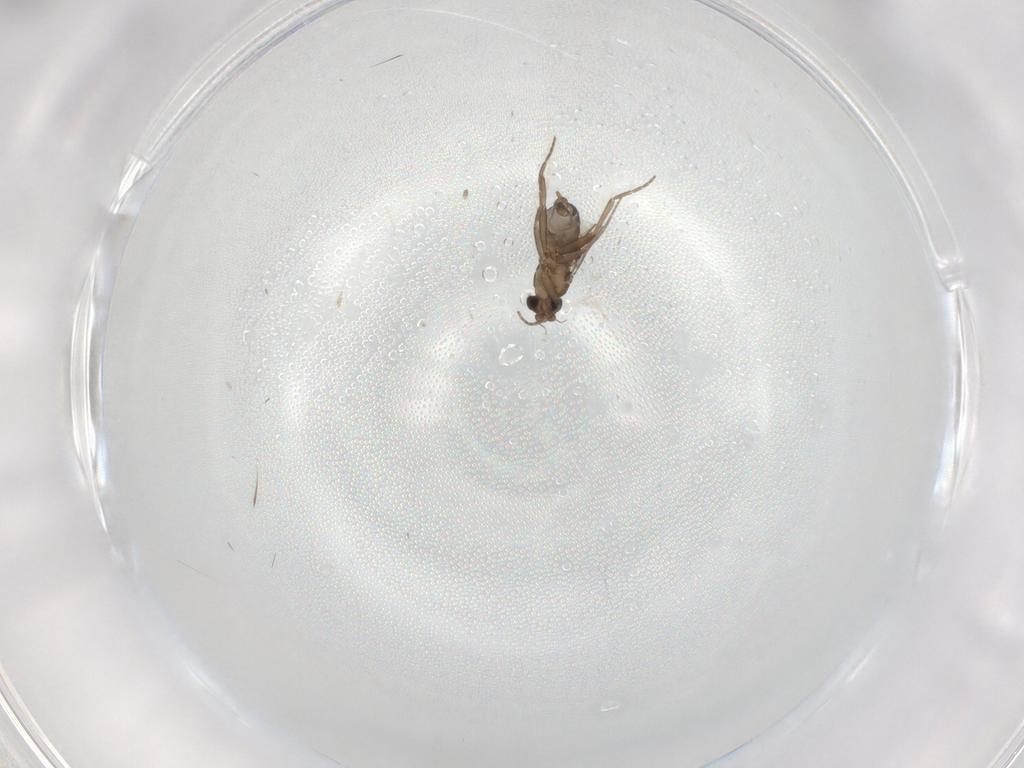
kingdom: Animalia
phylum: Arthropoda
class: Insecta
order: Diptera
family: Phoridae
